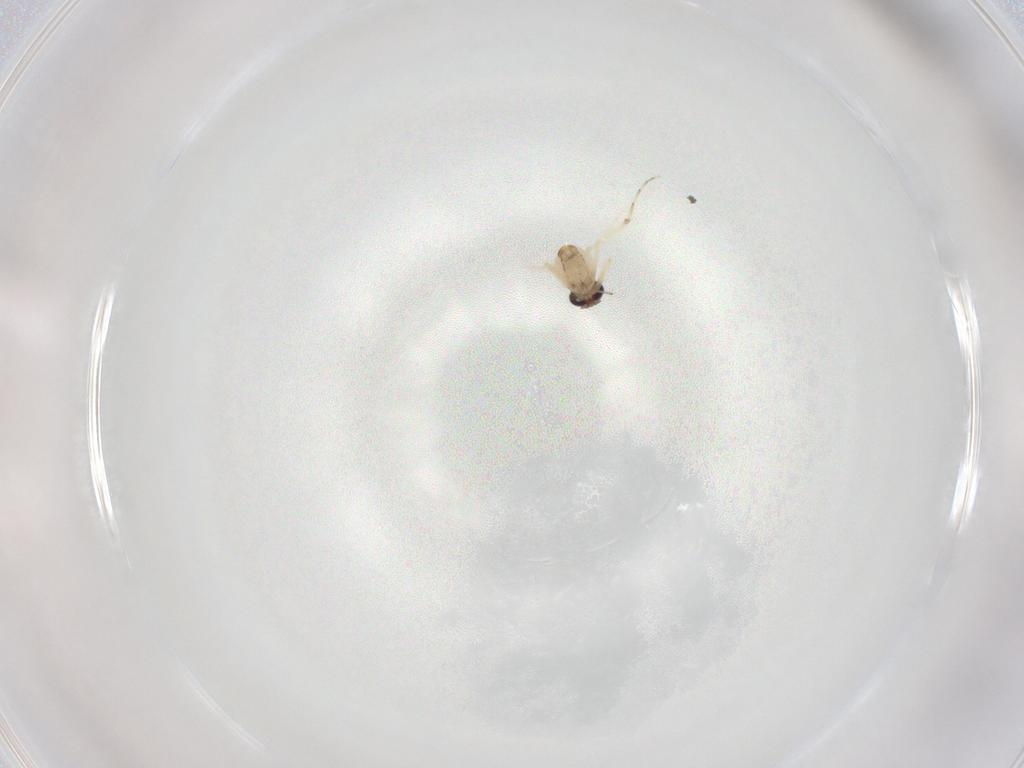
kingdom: Animalia
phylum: Arthropoda
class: Insecta
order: Diptera
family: Ceratopogonidae
